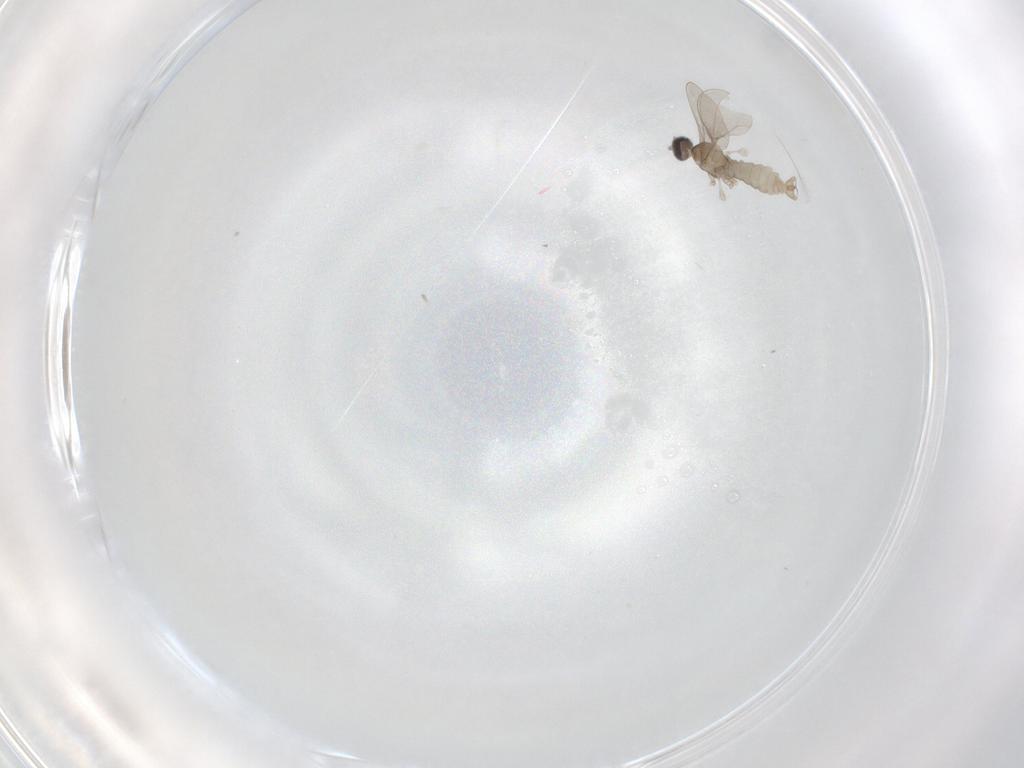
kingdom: Animalia
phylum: Arthropoda
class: Insecta
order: Diptera
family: Cecidomyiidae
